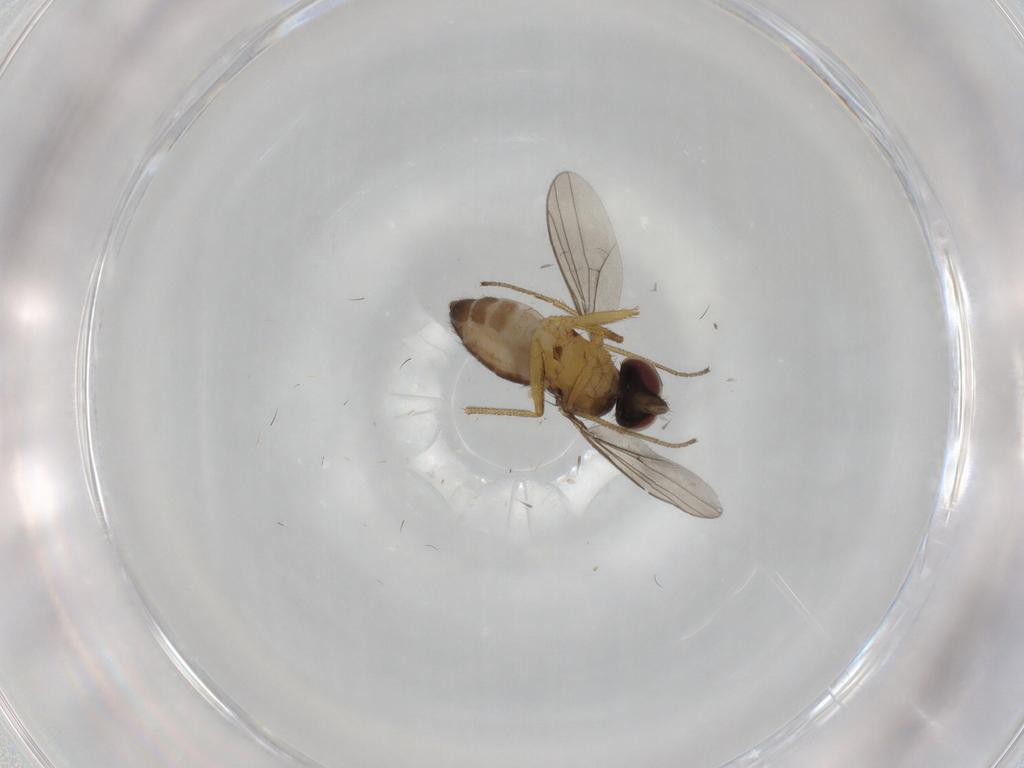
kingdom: Animalia
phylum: Arthropoda
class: Insecta
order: Diptera
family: Dolichopodidae
